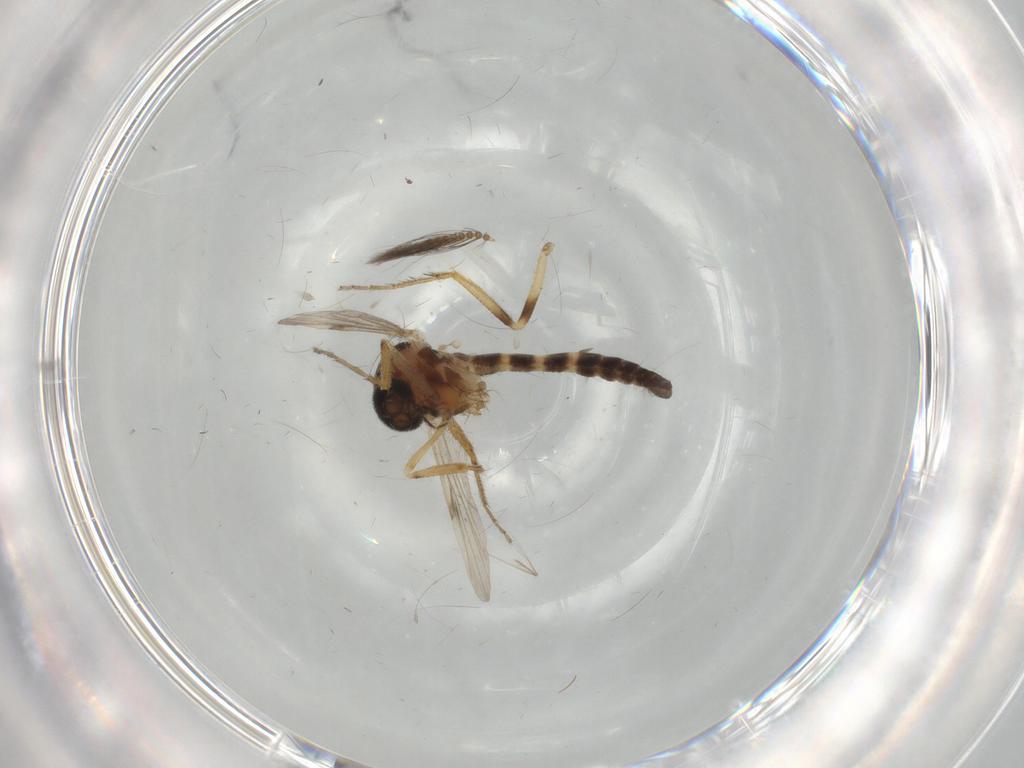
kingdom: Animalia
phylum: Arthropoda
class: Insecta
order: Diptera
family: Ceratopogonidae
